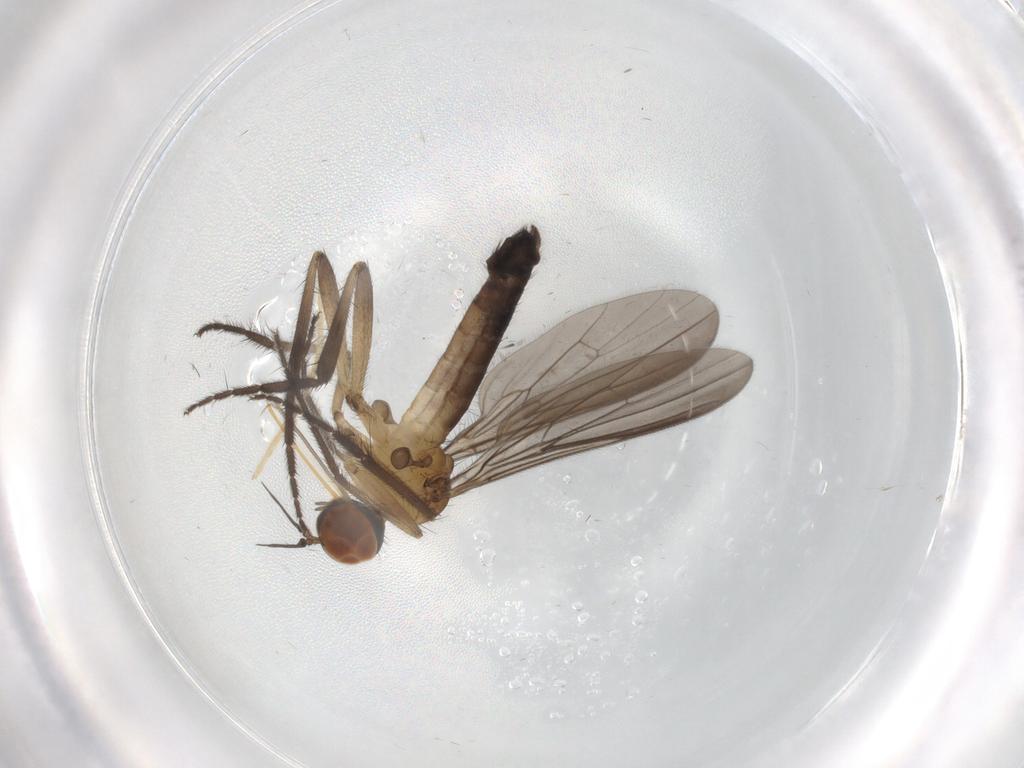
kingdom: Animalia
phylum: Arthropoda
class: Insecta
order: Diptera
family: Empididae
